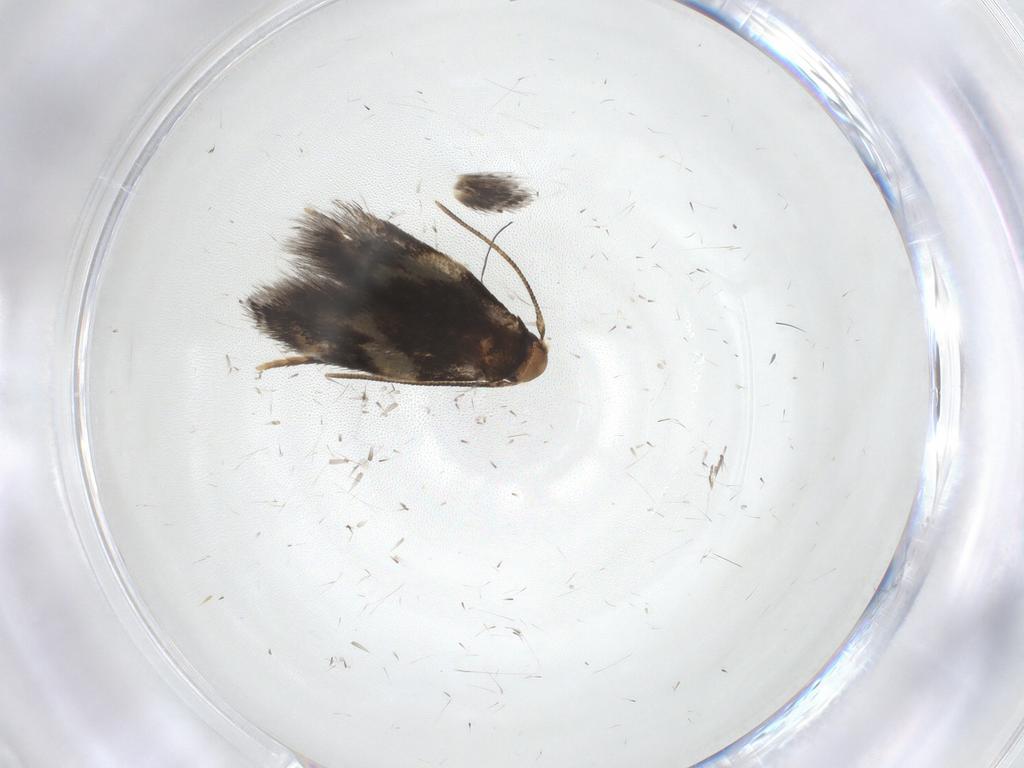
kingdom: Animalia
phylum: Arthropoda
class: Insecta
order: Lepidoptera
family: Gelechiidae
